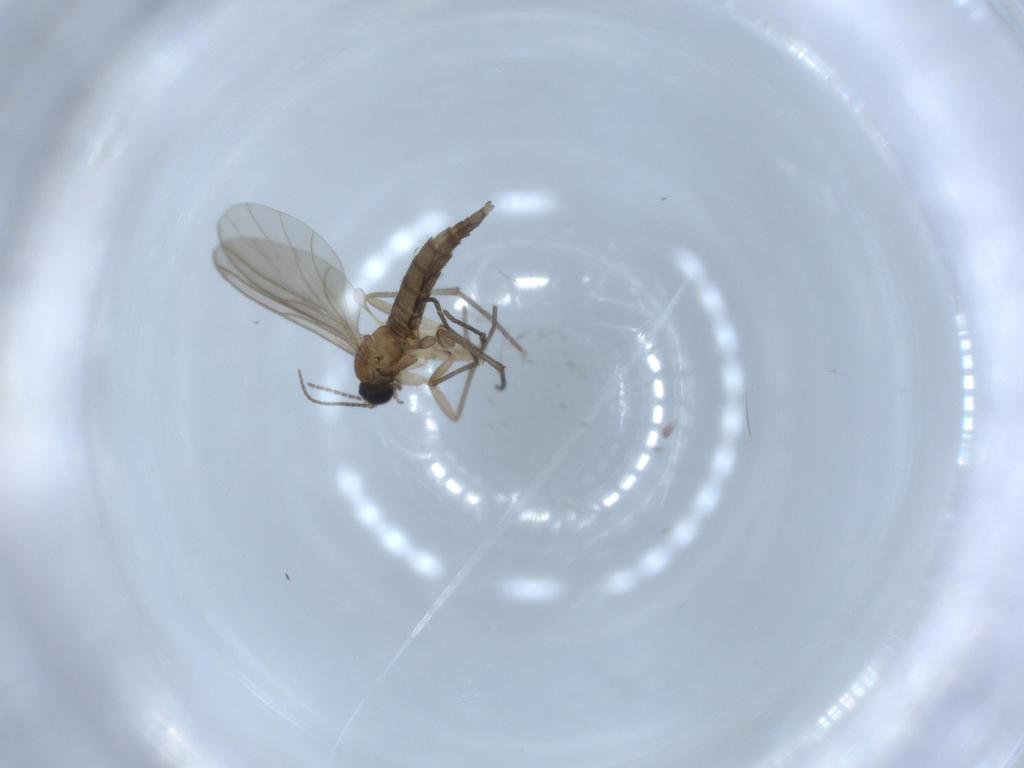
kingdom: Animalia
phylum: Arthropoda
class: Insecta
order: Diptera
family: Sciaridae
